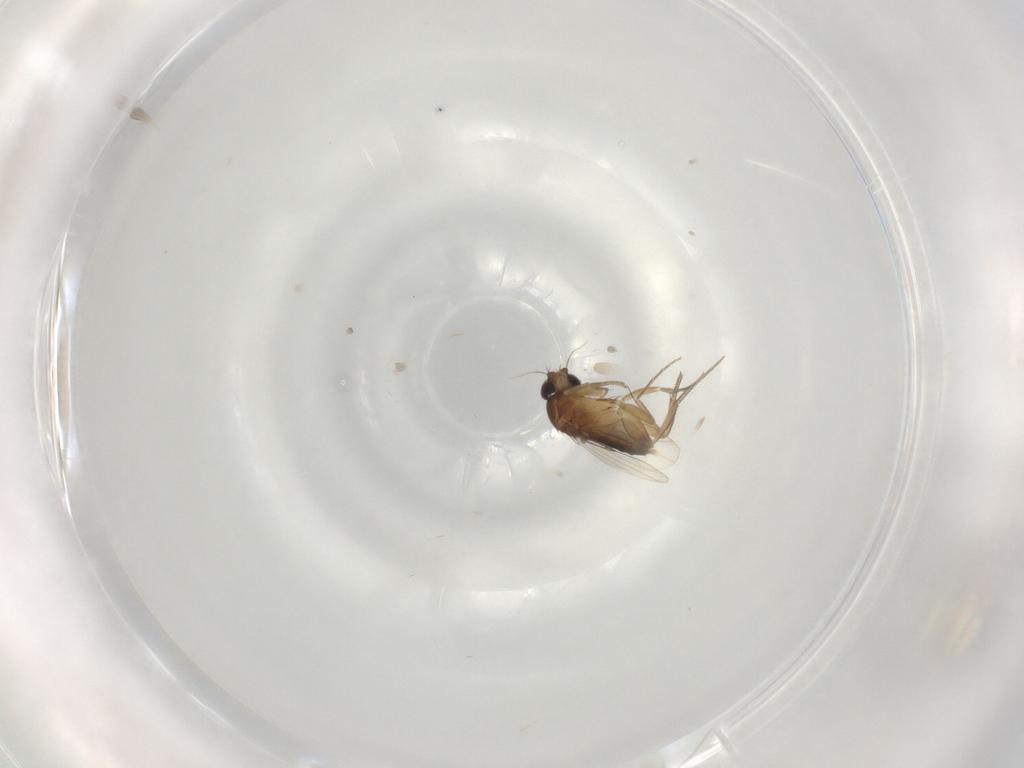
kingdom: Animalia
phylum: Arthropoda
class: Insecta
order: Diptera
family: Phoridae
